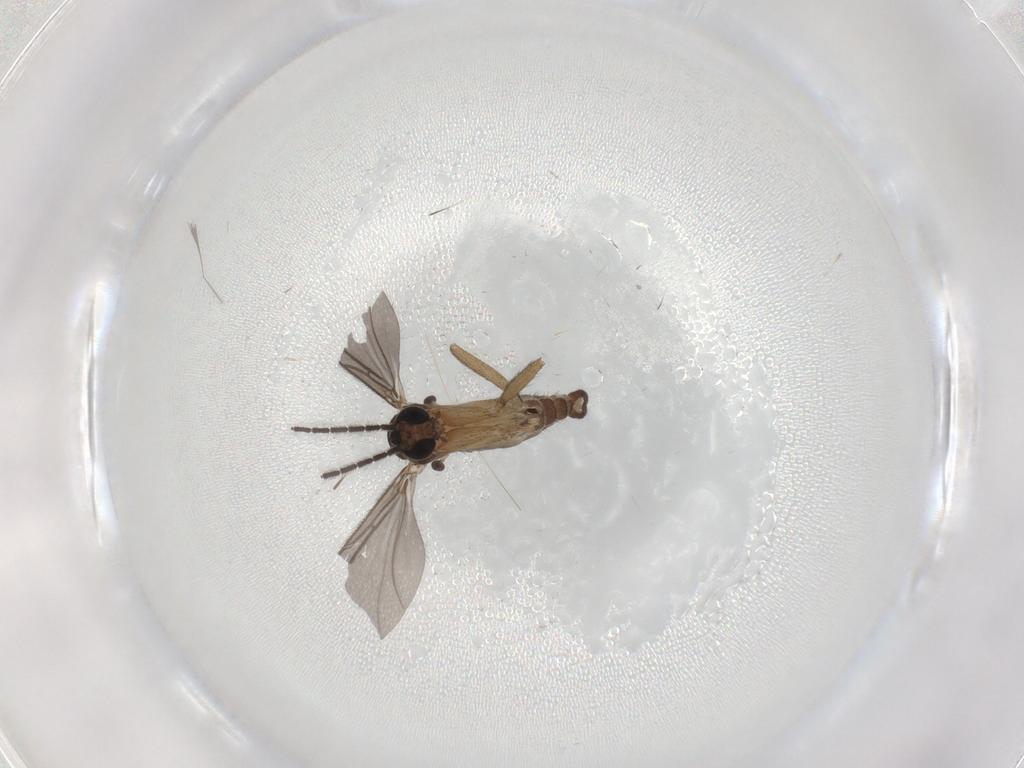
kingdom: Animalia
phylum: Arthropoda
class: Insecta
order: Diptera
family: Sciaridae
